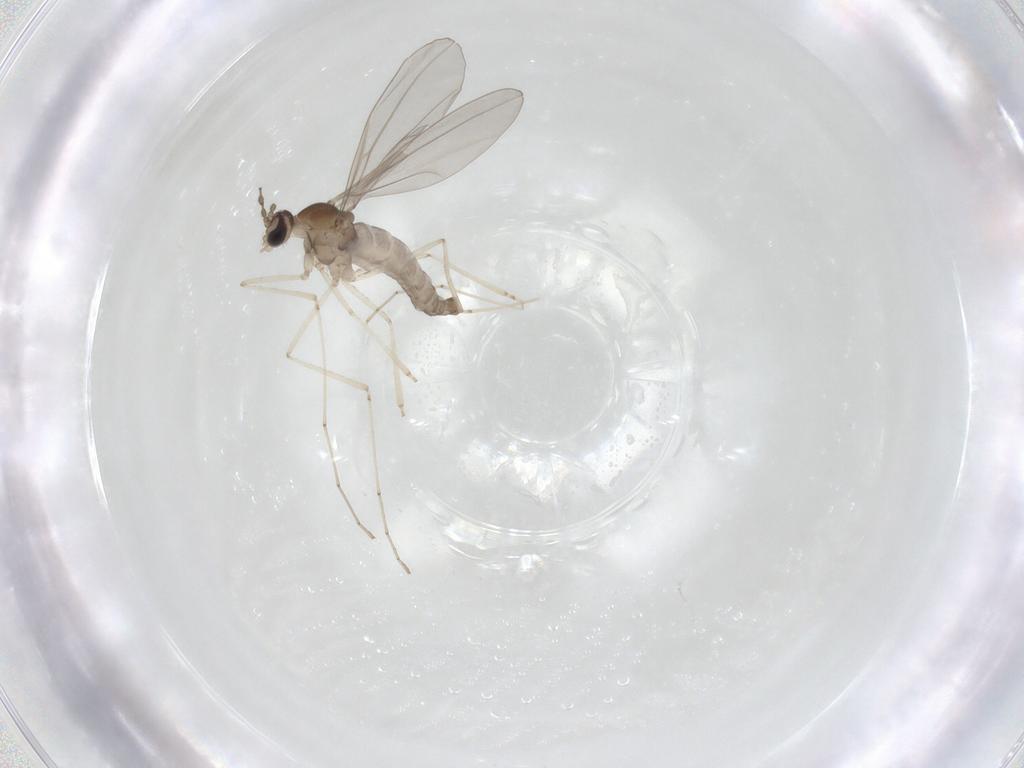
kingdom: Animalia
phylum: Arthropoda
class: Insecta
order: Diptera
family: Cecidomyiidae
